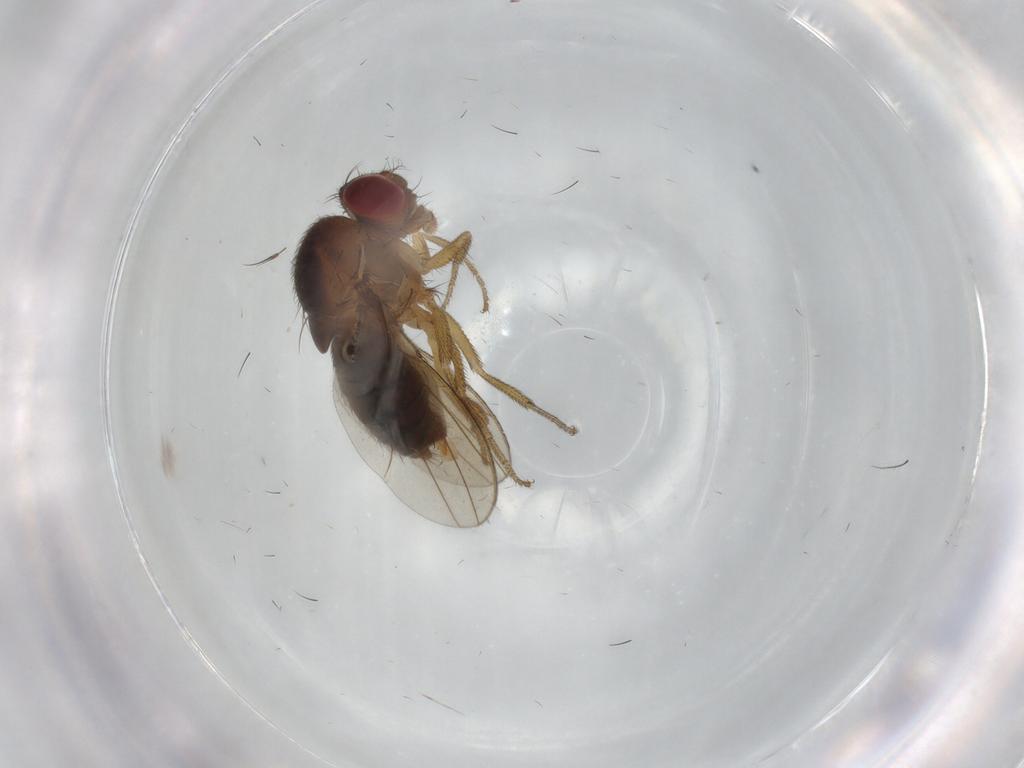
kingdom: Animalia
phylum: Arthropoda
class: Insecta
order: Diptera
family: Drosophilidae
